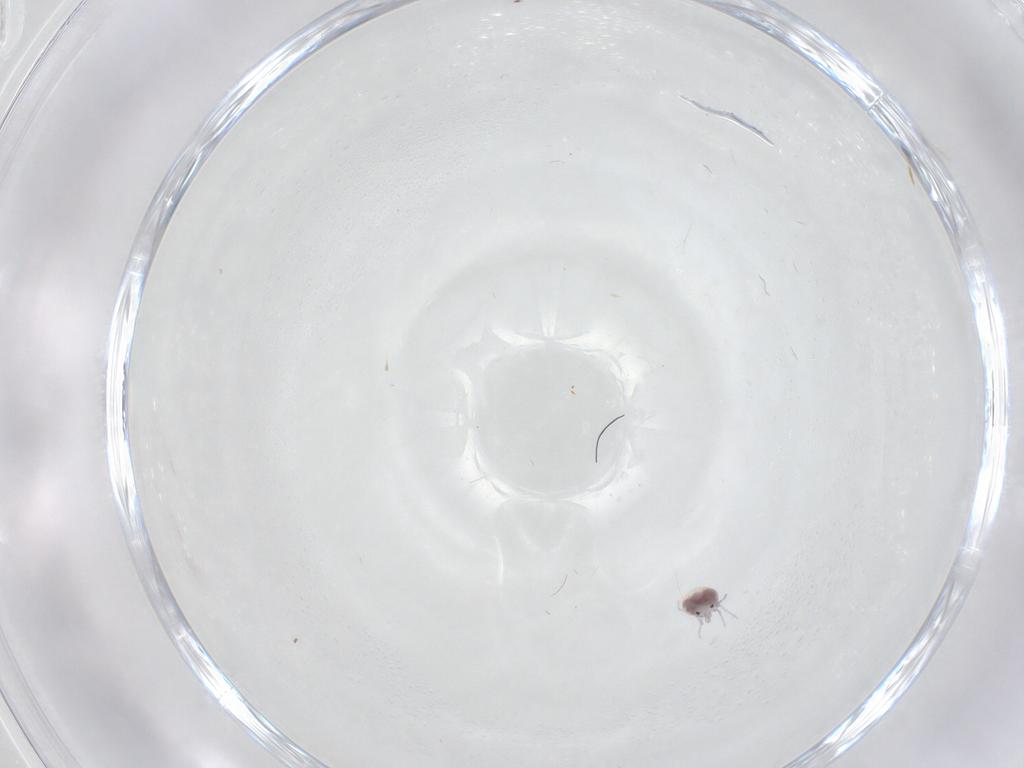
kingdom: Animalia
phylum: Arthropoda
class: Arachnida
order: Trombidiformes
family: Pionidae
